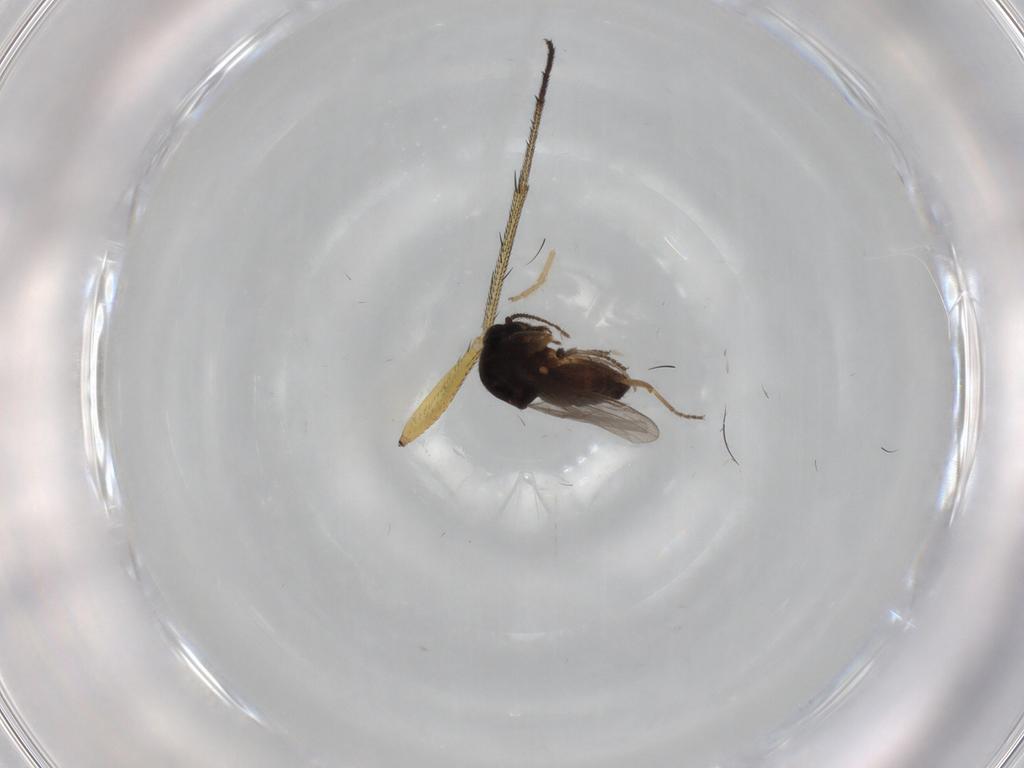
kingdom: Animalia
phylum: Arthropoda
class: Insecta
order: Diptera
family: Ceratopogonidae
